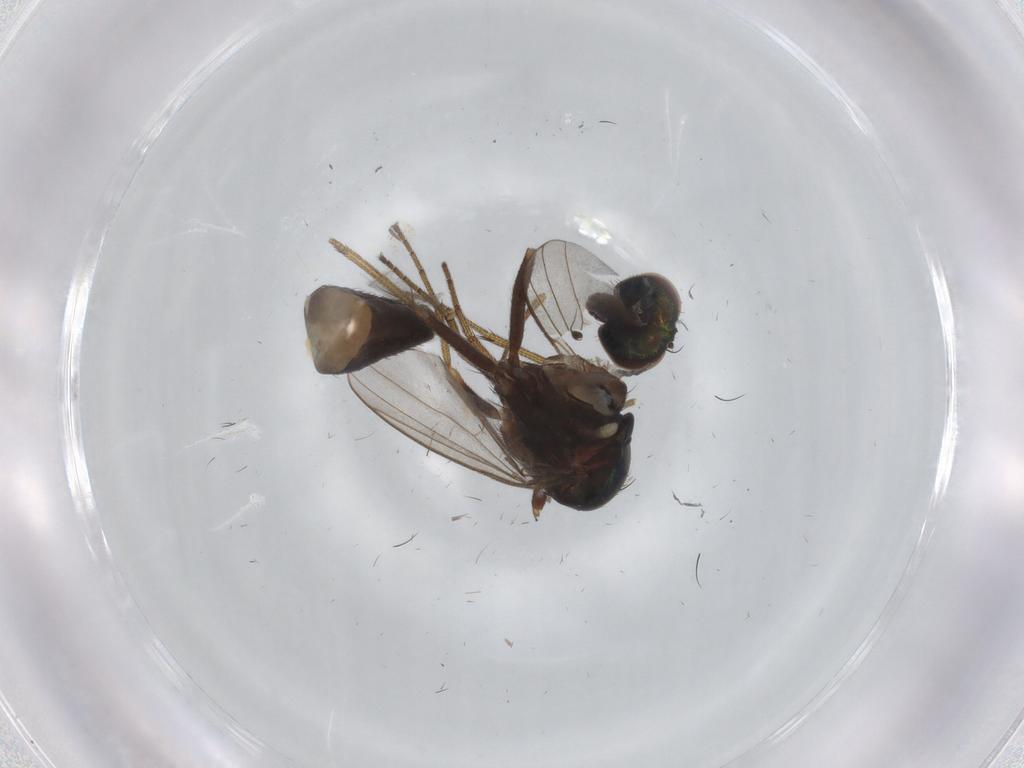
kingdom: Animalia
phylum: Arthropoda
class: Insecta
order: Diptera
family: Dolichopodidae
